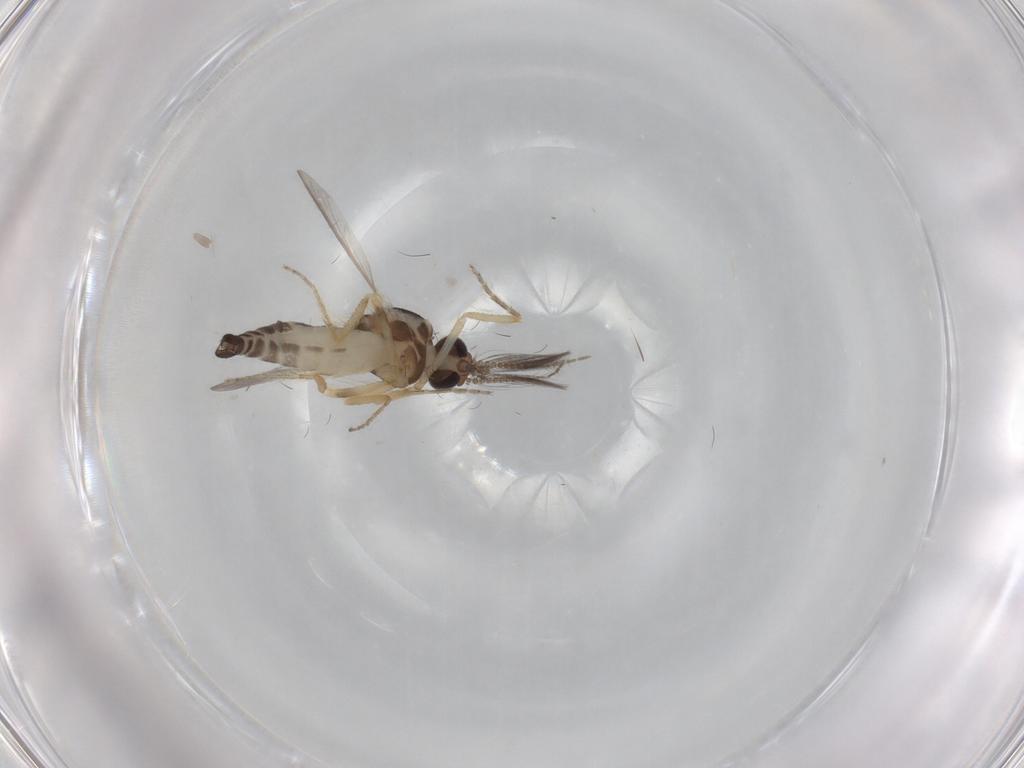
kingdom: Animalia
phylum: Arthropoda
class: Insecta
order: Diptera
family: Ceratopogonidae
